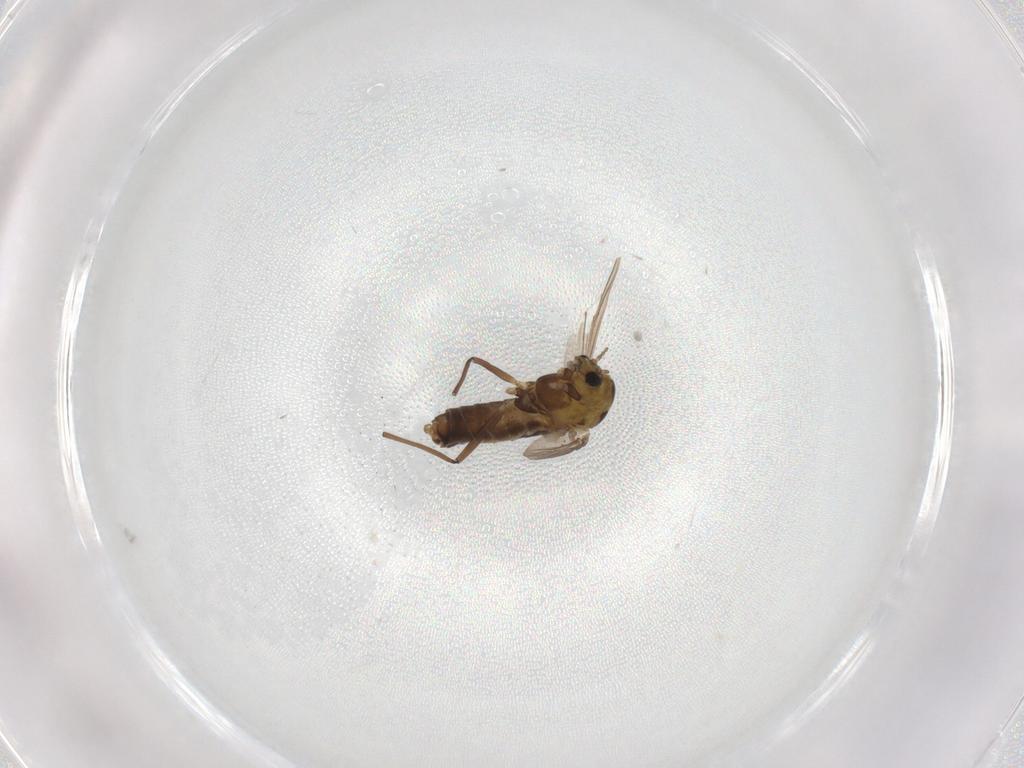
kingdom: Animalia
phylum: Arthropoda
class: Insecta
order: Diptera
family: Chironomidae
